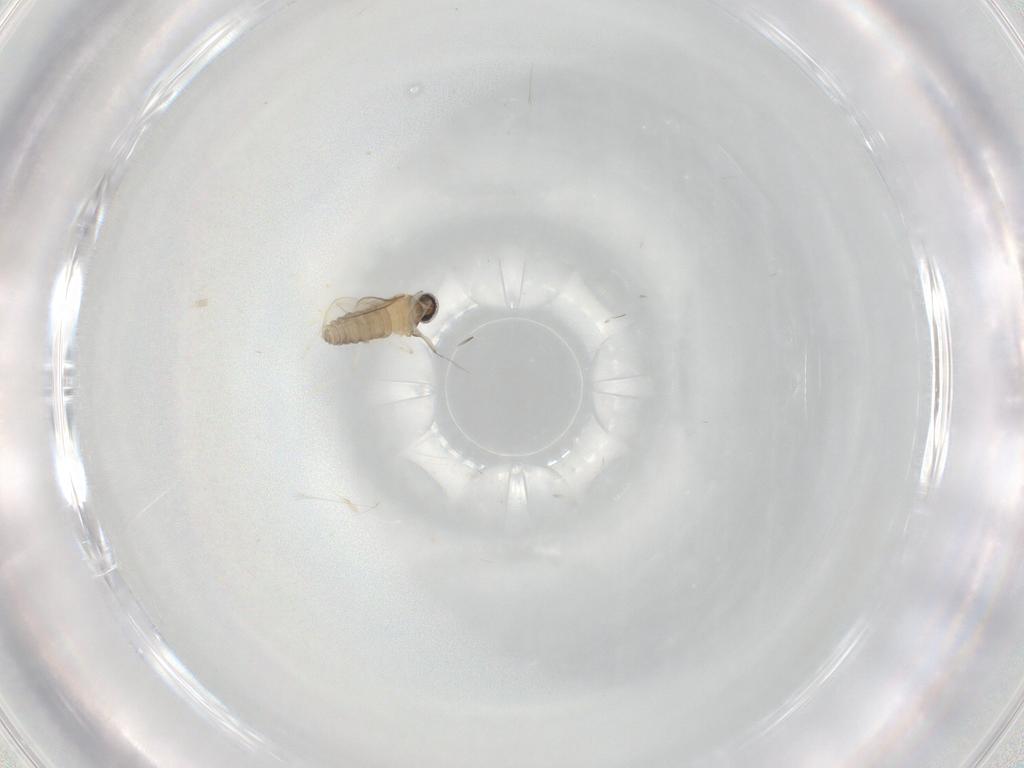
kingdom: Animalia
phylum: Arthropoda
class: Insecta
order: Diptera
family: Cecidomyiidae
